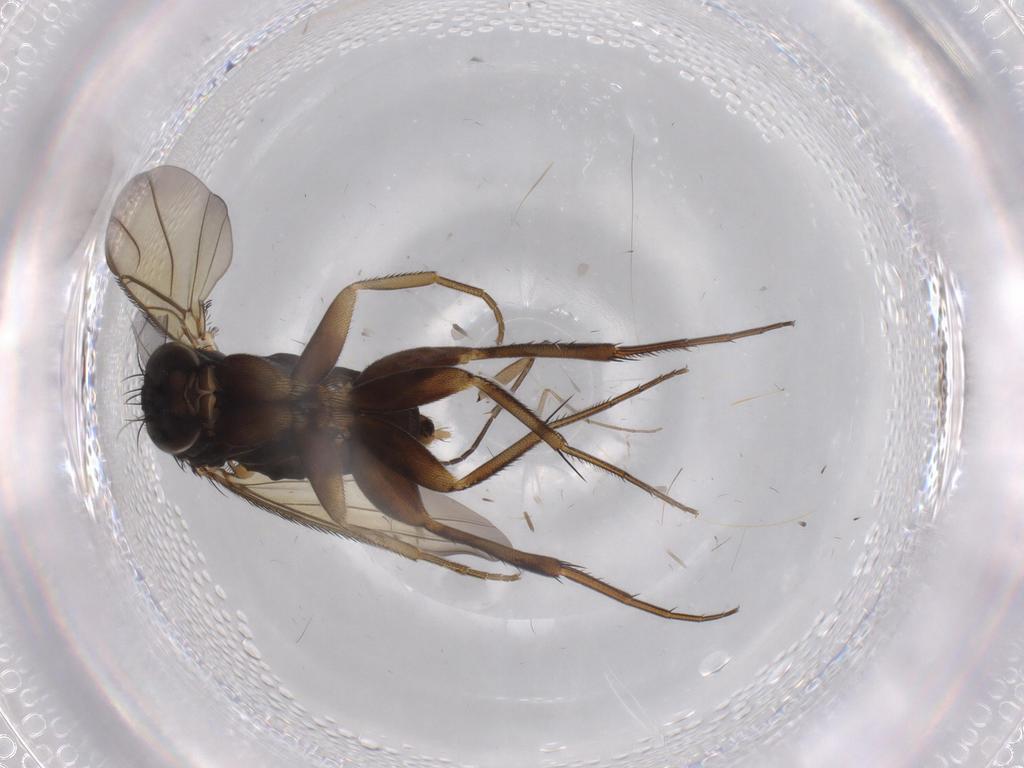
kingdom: Animalia
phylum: Arthropoda
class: Insecta
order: Diptera
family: Phoridae
